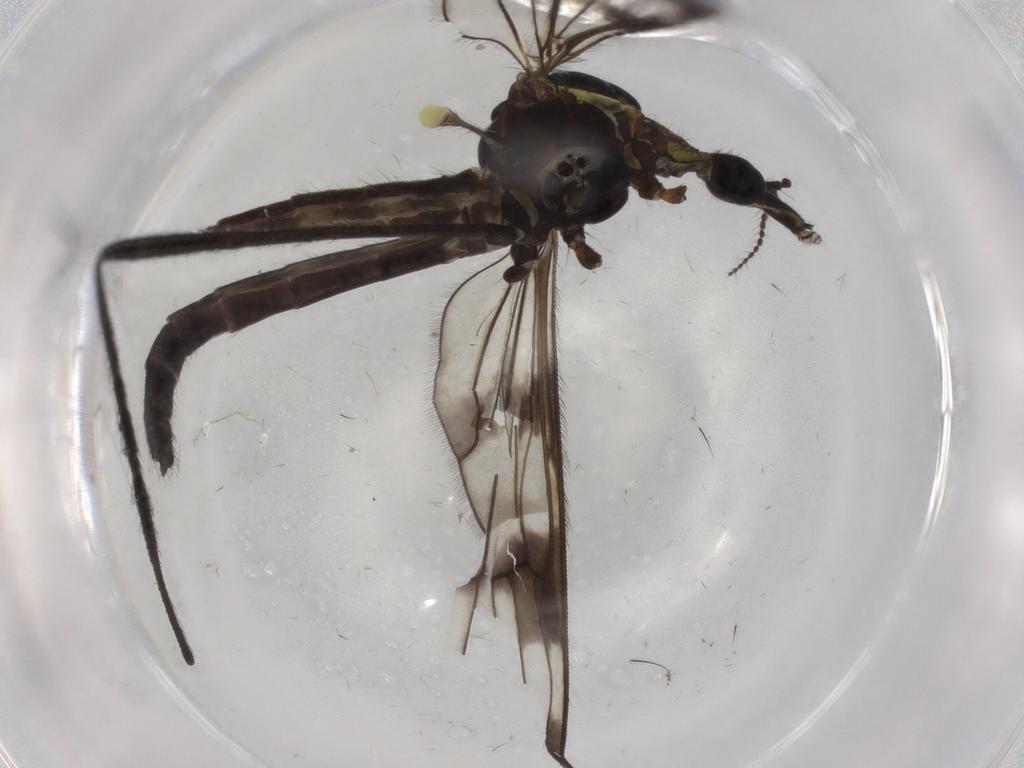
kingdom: Animalia
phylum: Arthropoda
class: Insecta
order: Diptera
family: Limoniidae
